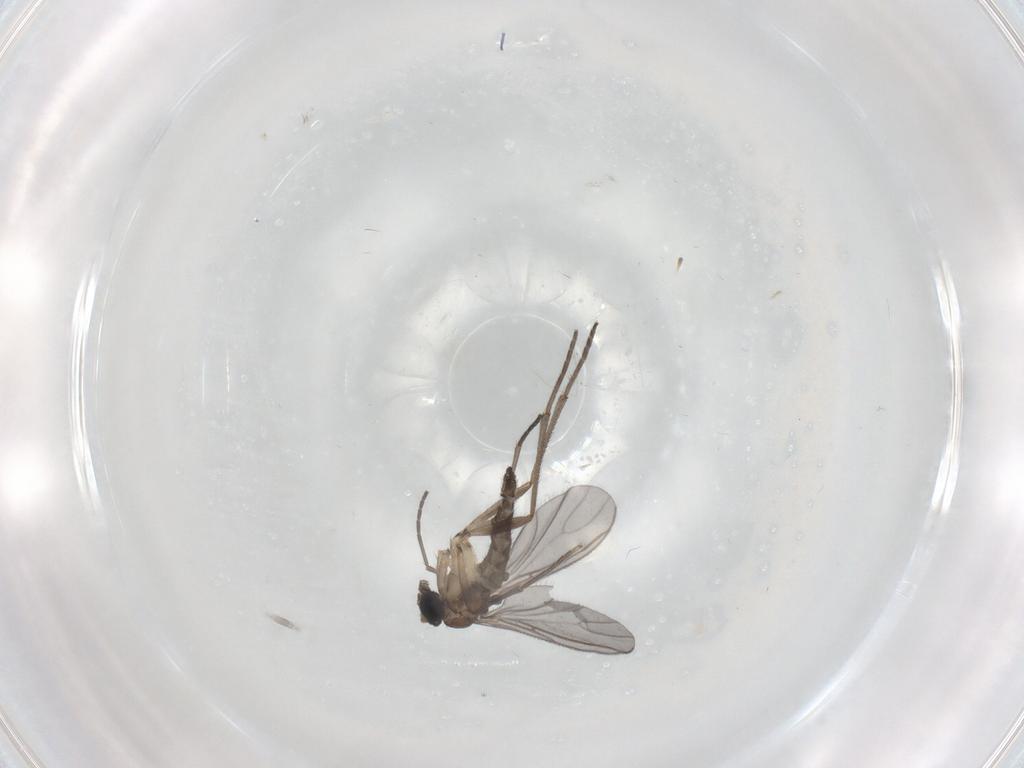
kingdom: Animalia
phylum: Arthropoda
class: Insecta
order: Diptera
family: Sciaridae
